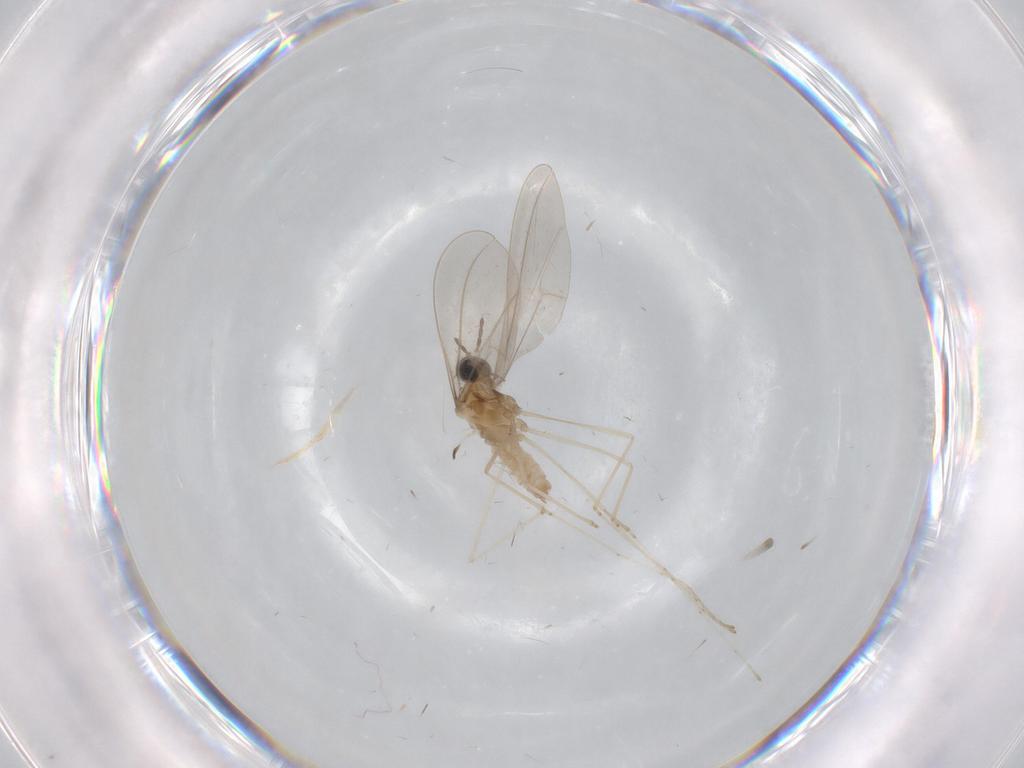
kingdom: Animalia
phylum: Arthropoda
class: Insecta
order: Diptera
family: Cecidomyiidae
